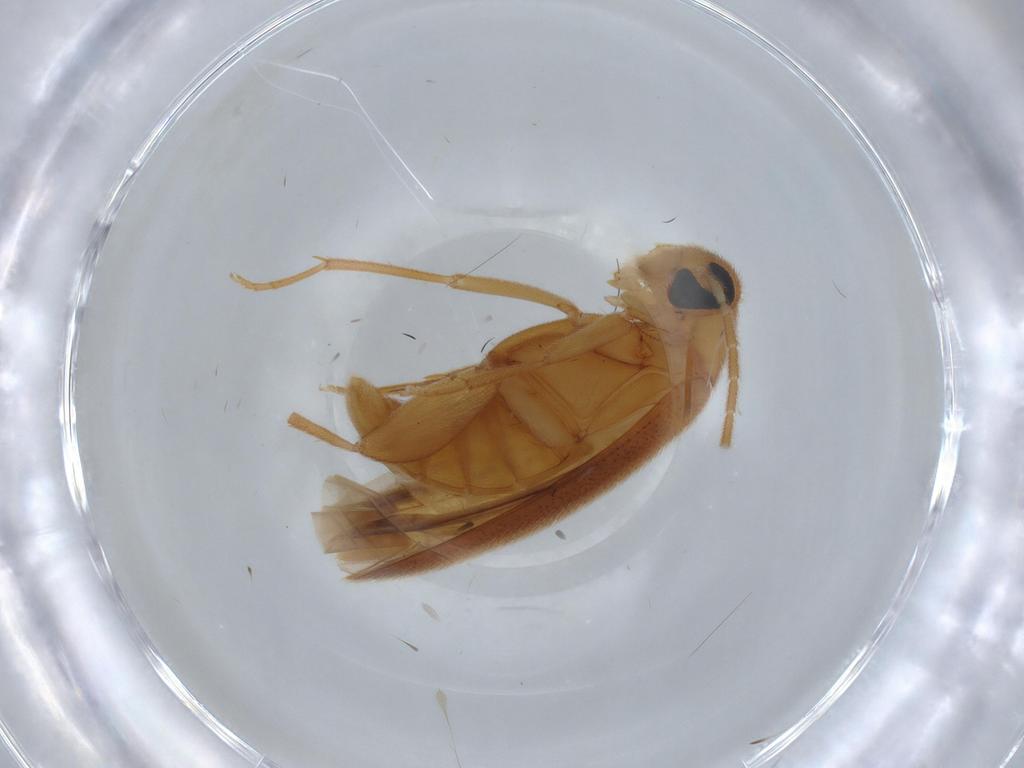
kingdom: Animalia
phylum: Arthropoda
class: Insecta
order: Coleoptera
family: Scraptiidae
